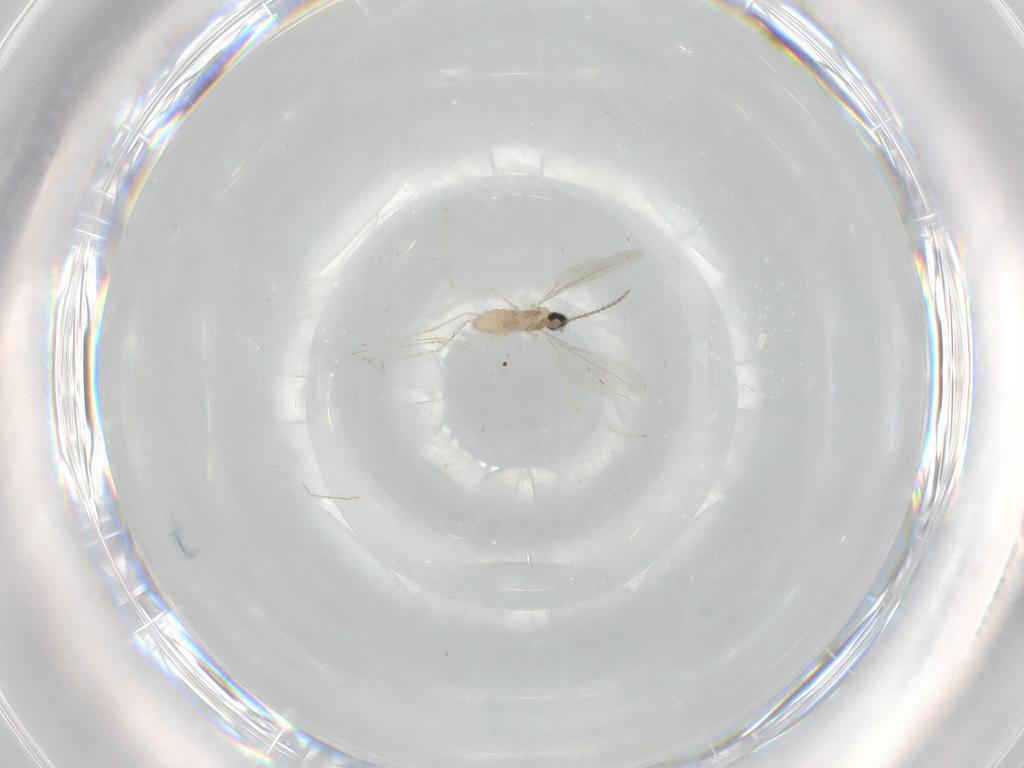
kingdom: Animalia
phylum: Arthropoda
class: Insecta
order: Diptera
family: Cecidomyiidae
